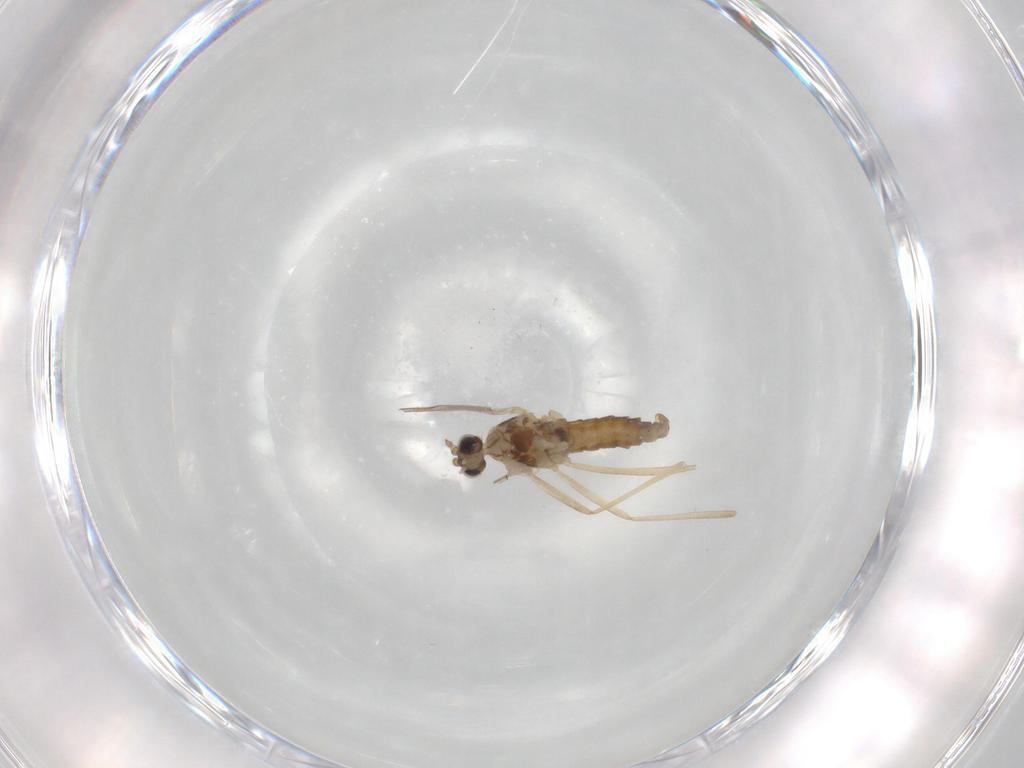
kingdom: Animalia
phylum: Arthropoda
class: Insecta
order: Diptera
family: Cecidomyiidae
